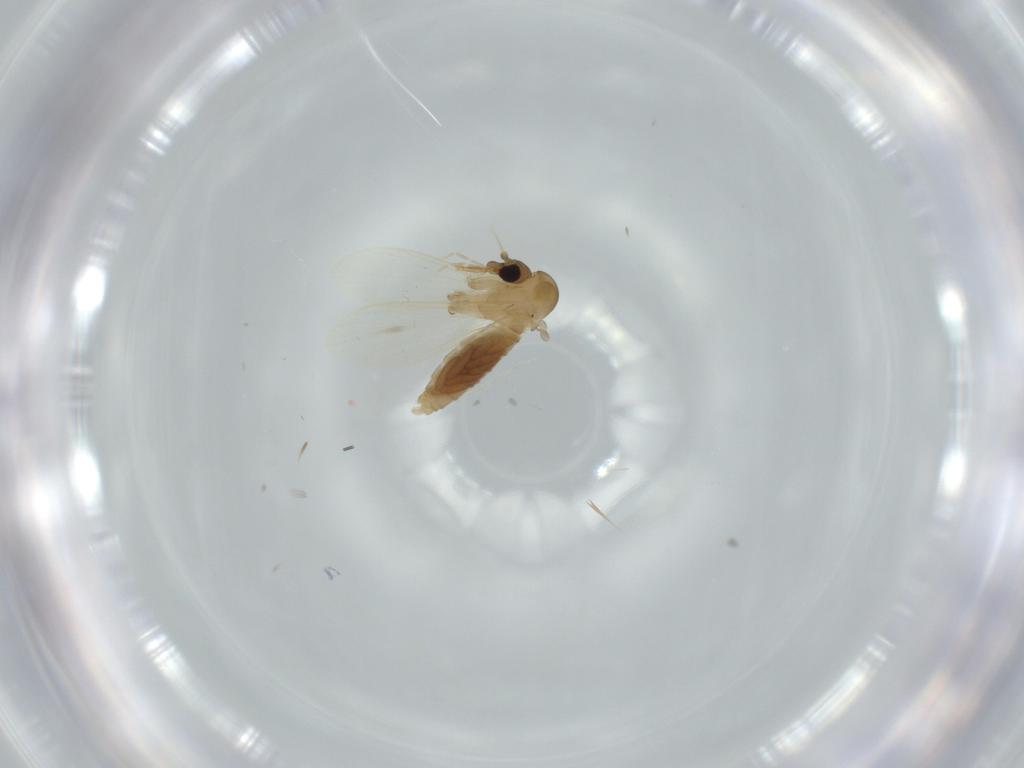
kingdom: Animalia
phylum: Arthropoda
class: Insecta
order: Diptera
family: Psychodidae
